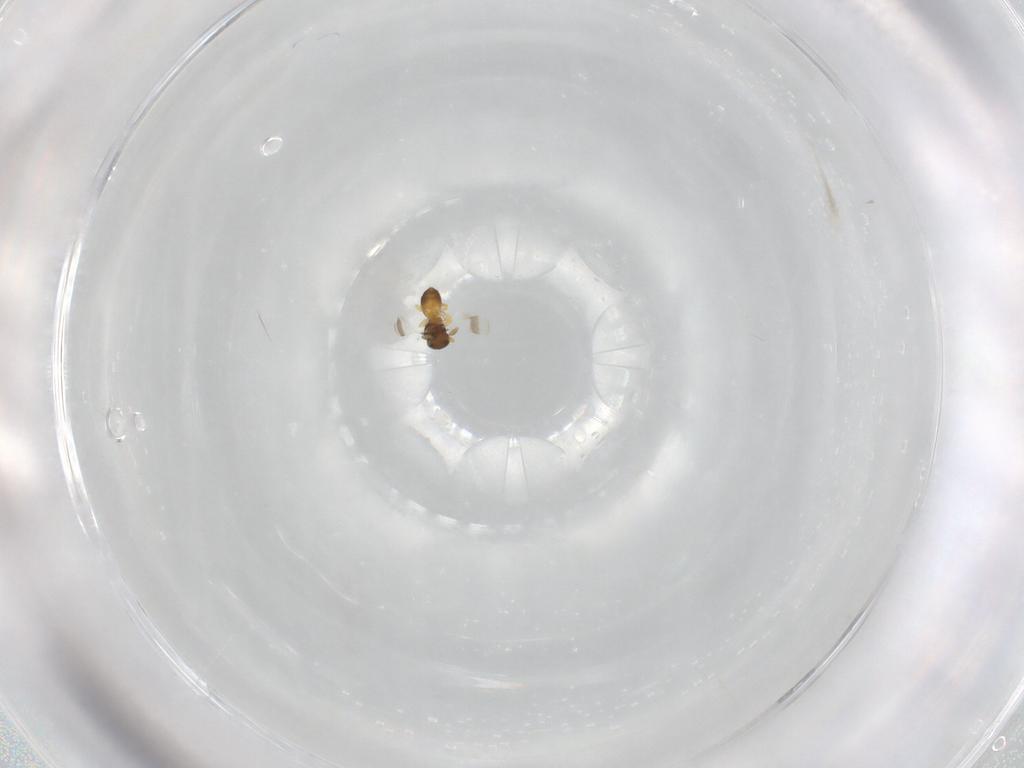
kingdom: Animalia
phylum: Arthropoda
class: Insecta
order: Hymenoptera
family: Platygastridae
